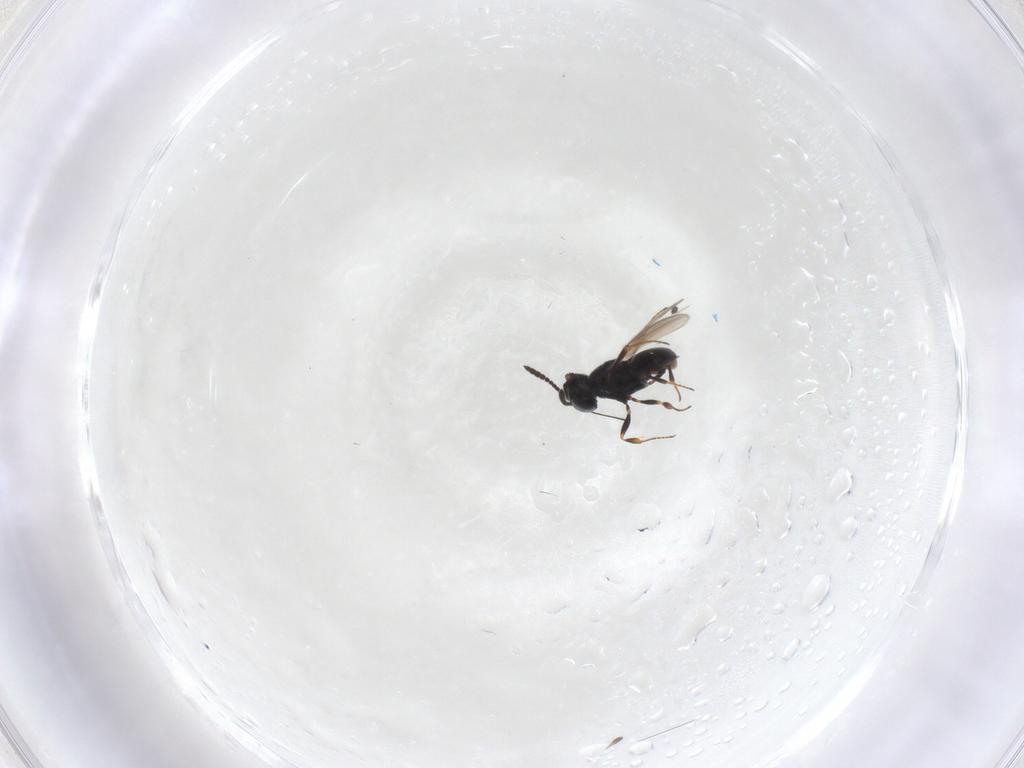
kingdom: Animalia
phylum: Arthropoda
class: Insecta
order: Hymenoptera
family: Scelionidae
